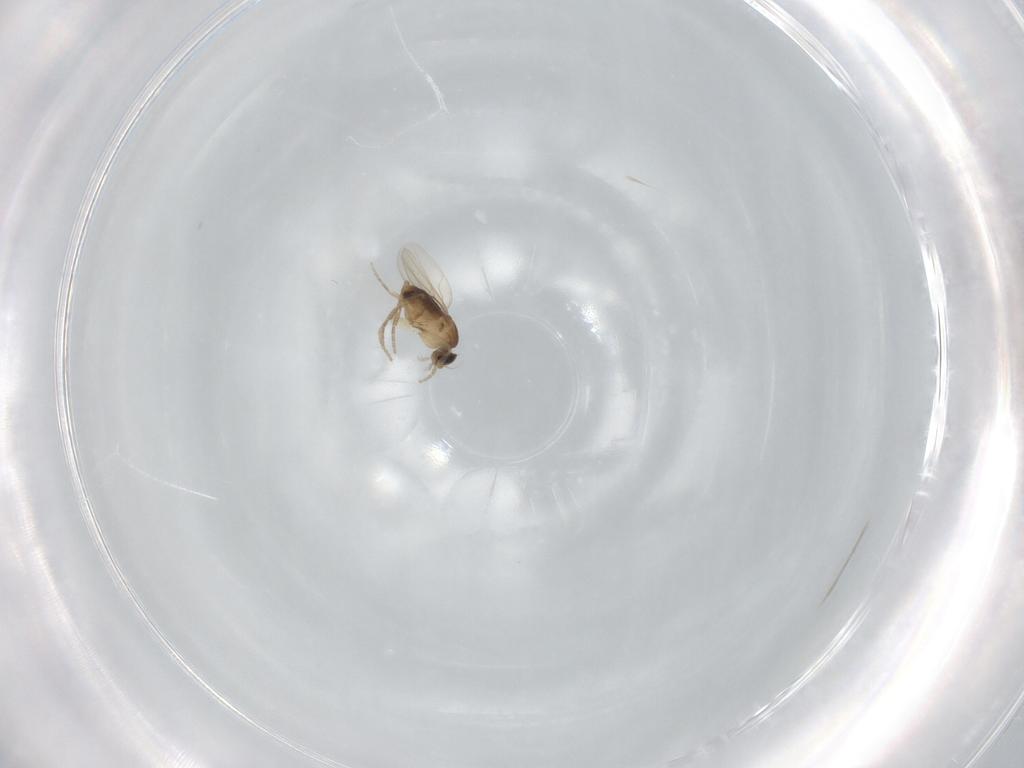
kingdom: Animalia
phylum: Arthropoda
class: Insecta
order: Diptera
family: Phoridae
